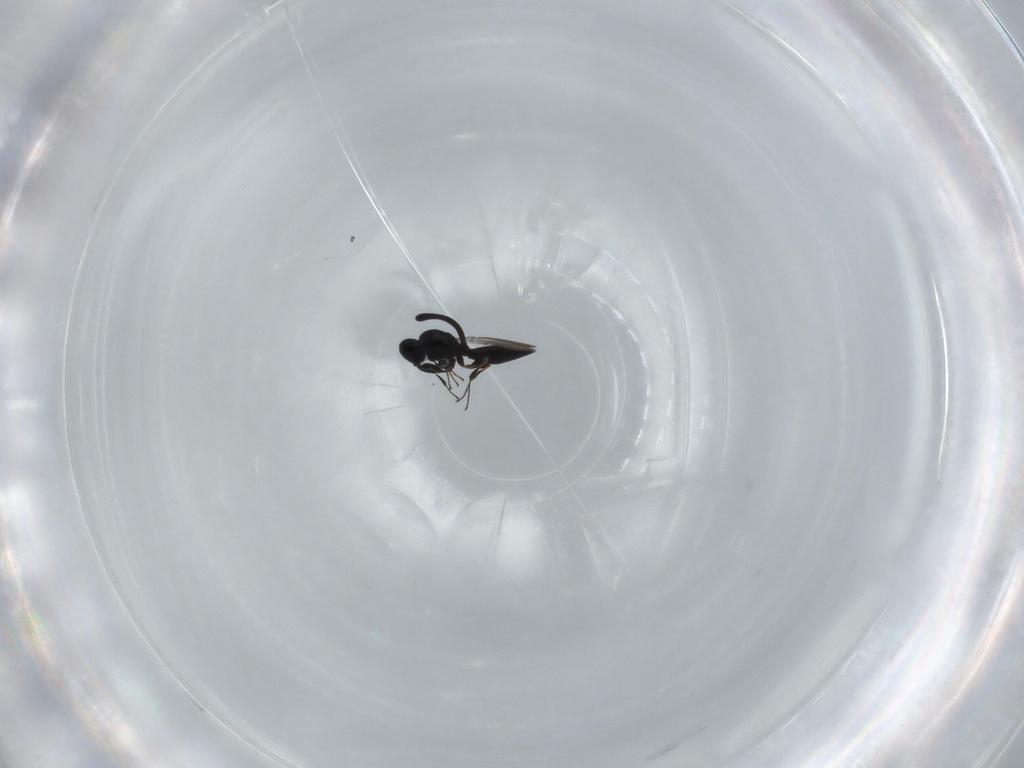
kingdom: Animalia
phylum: Arthropoda
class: Insecta
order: Hymenoptera
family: Platygastridae
